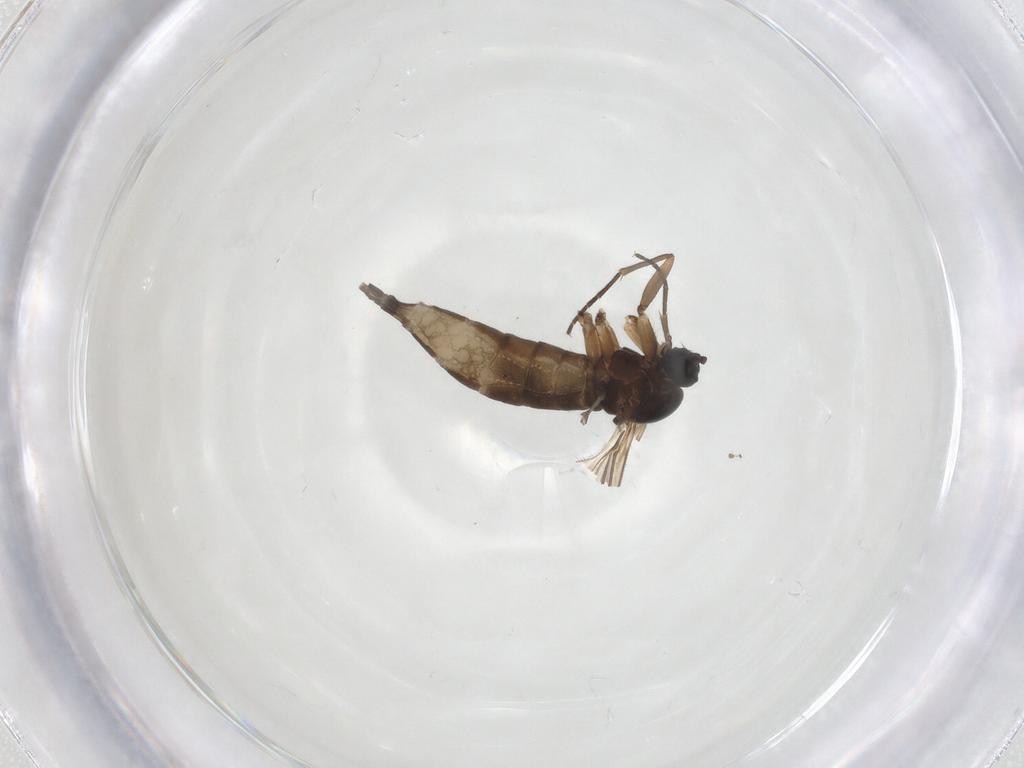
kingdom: Animalia
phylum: Arthropoda
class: Insecta
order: Diptera
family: Sciaridae
